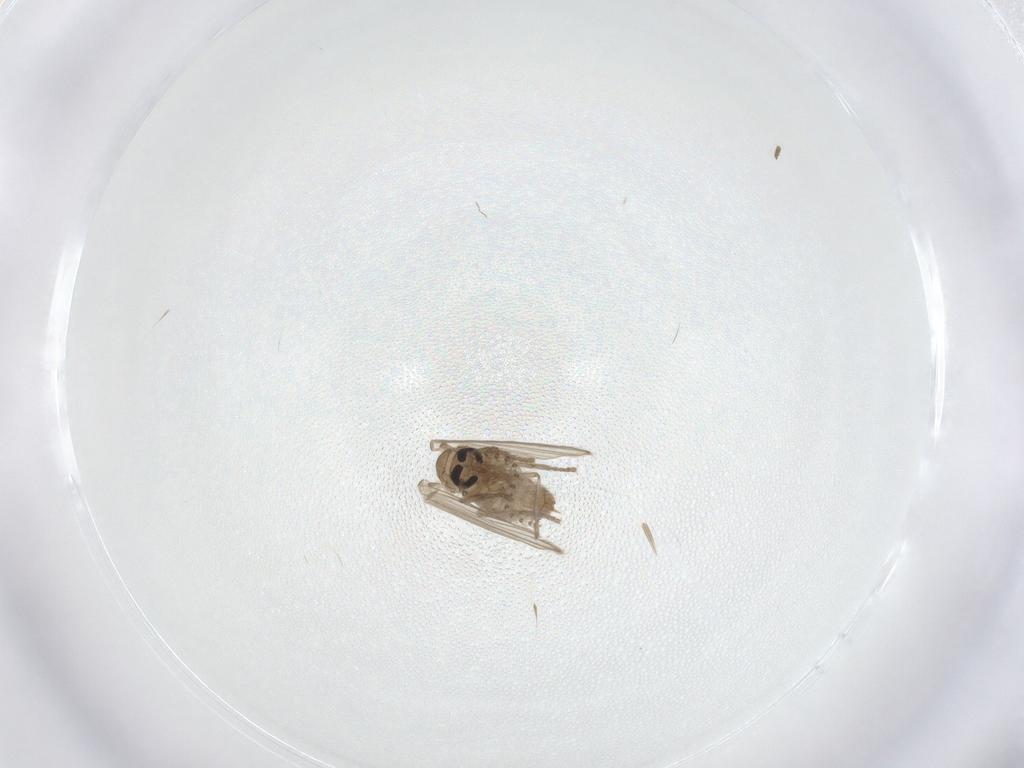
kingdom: Animalia
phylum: Arthropoda
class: Insecta
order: Diptera
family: Psychodidae
